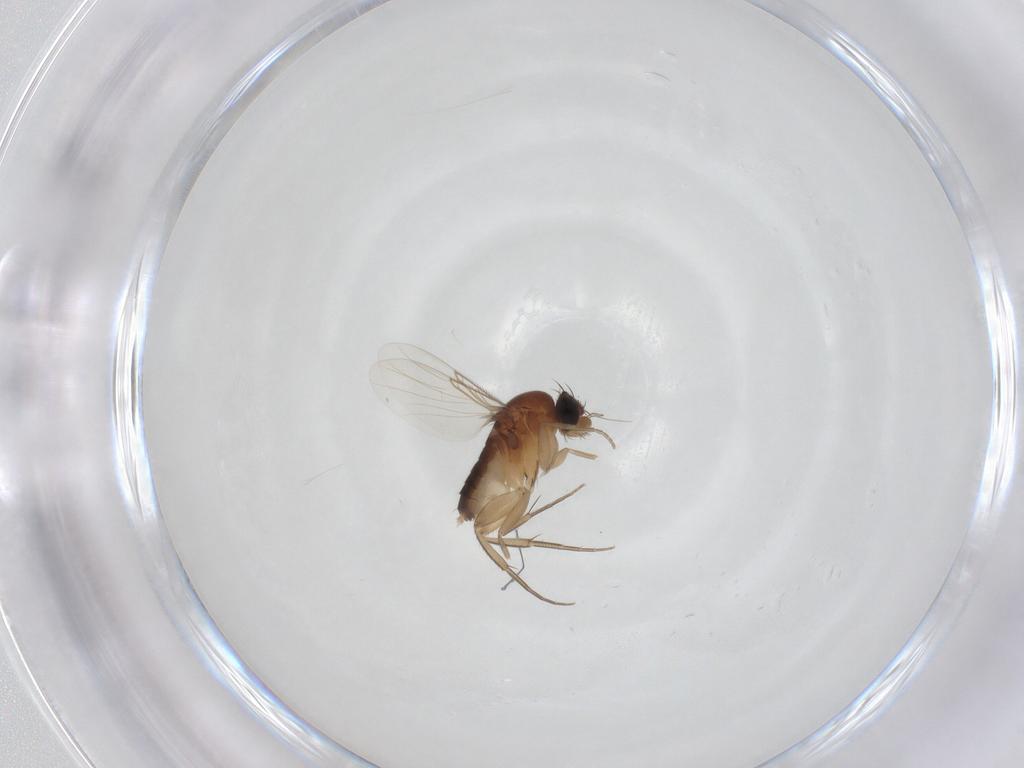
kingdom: Animalia
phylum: Arthropoda
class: Insecta
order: Diptera
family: Phoridae
